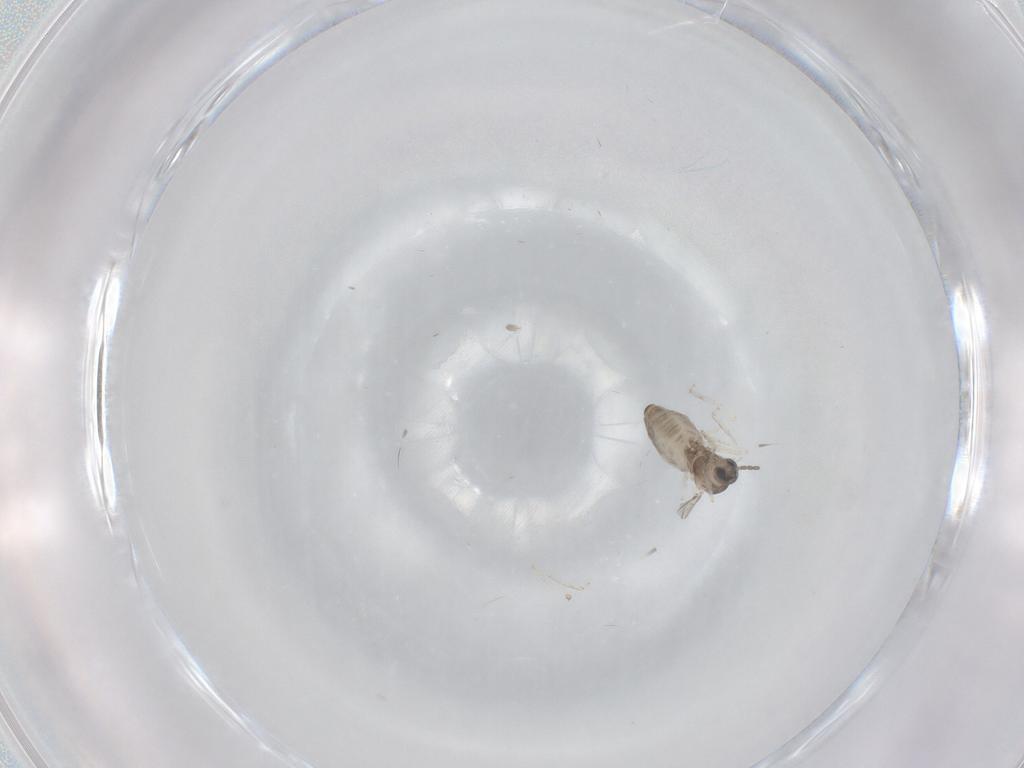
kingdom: Animalia
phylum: Arthropoda
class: Insecta
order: Diptera
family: Cecidomyiidae
